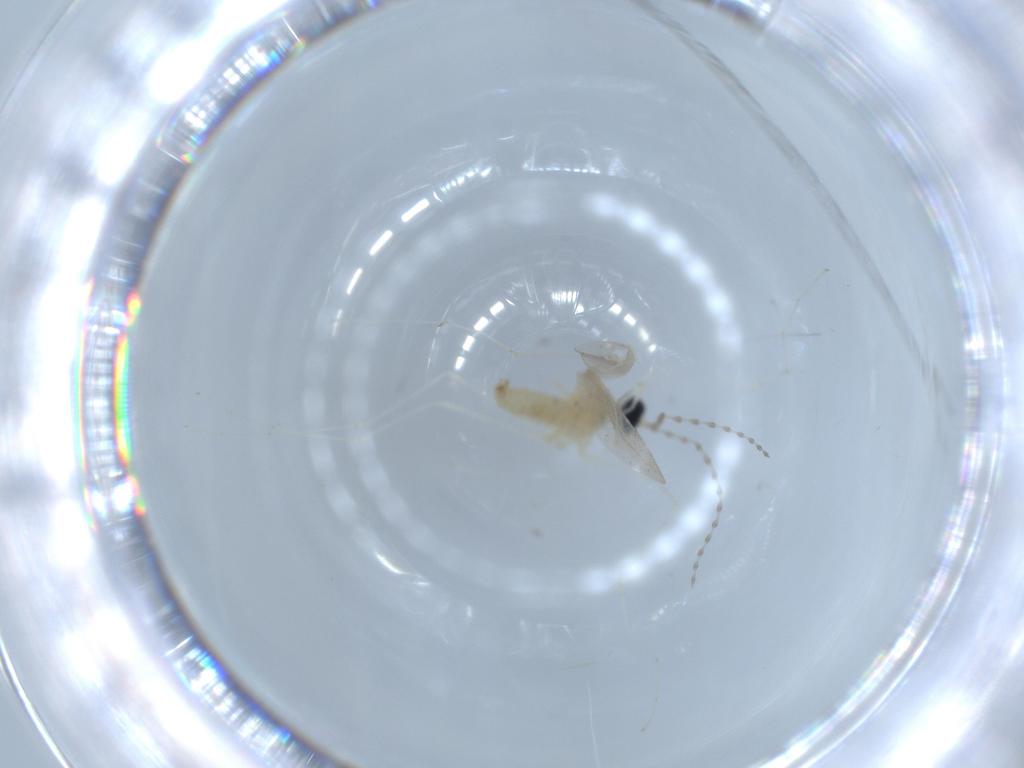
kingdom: Animalia
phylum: Arthropoda
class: Insecta
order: Diptera
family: Cecidomyiidae
